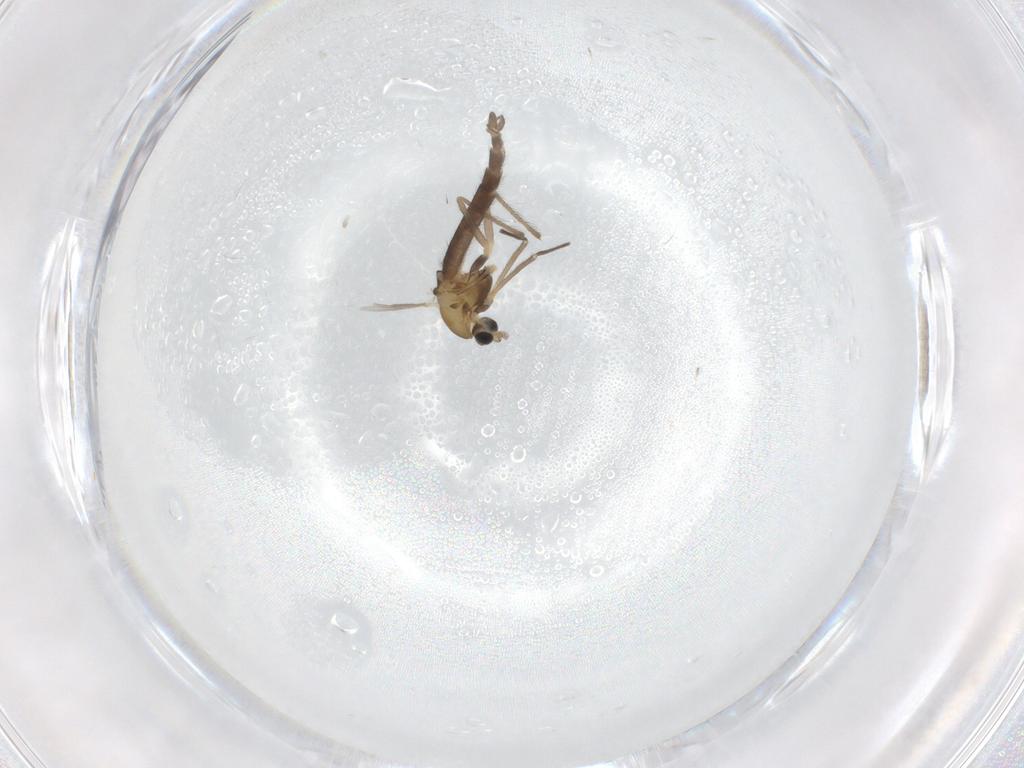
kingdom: Animalia
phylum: Arthropoda
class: Insecta
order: Diptera
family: Chironomidae
